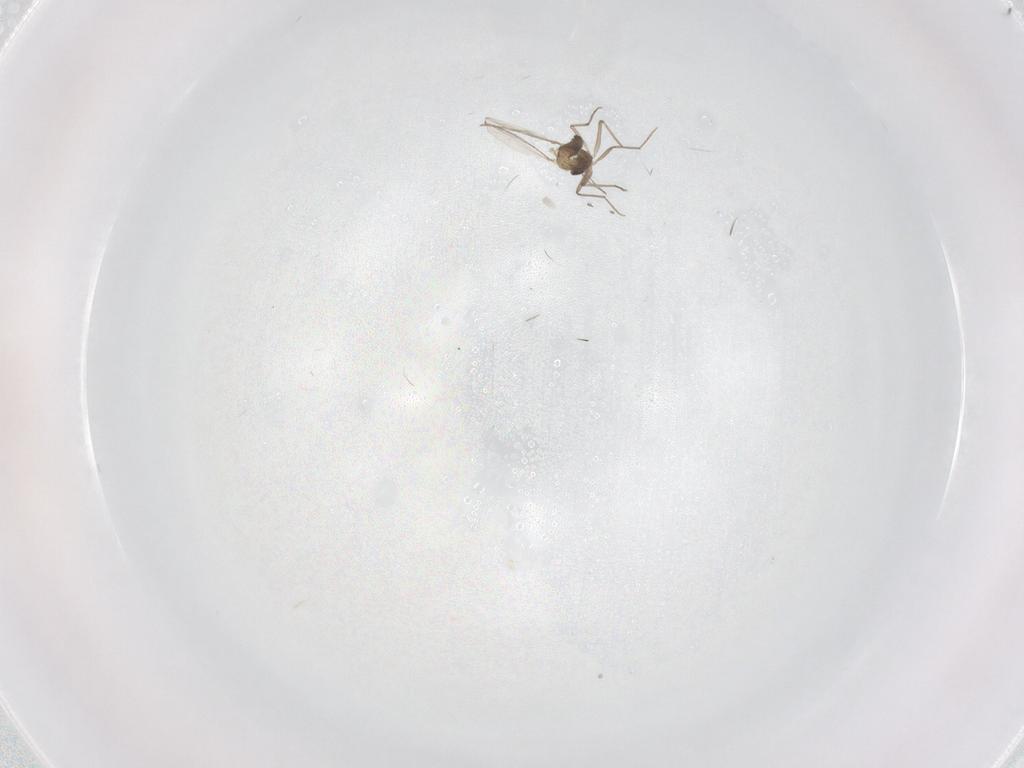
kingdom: Animalia
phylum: Arthropoda
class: Insecta
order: Diptera
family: Chironomidae
